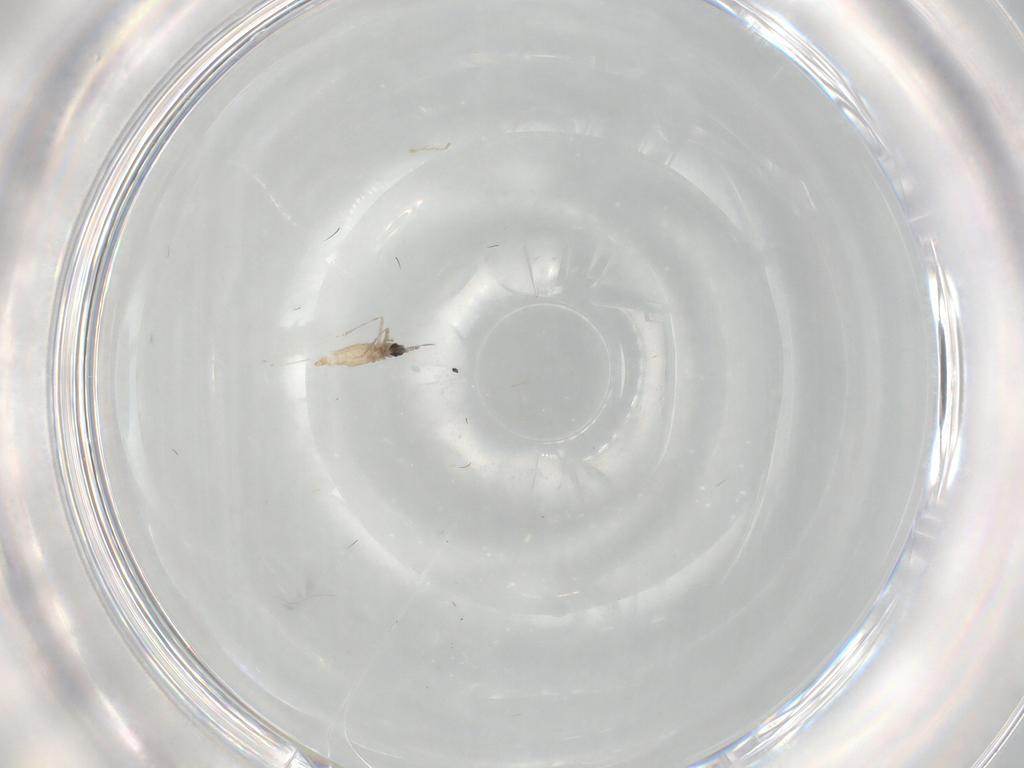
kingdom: Animalia
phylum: Arthropoda
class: Insecta
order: Diptera
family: Cecidomyiidae
